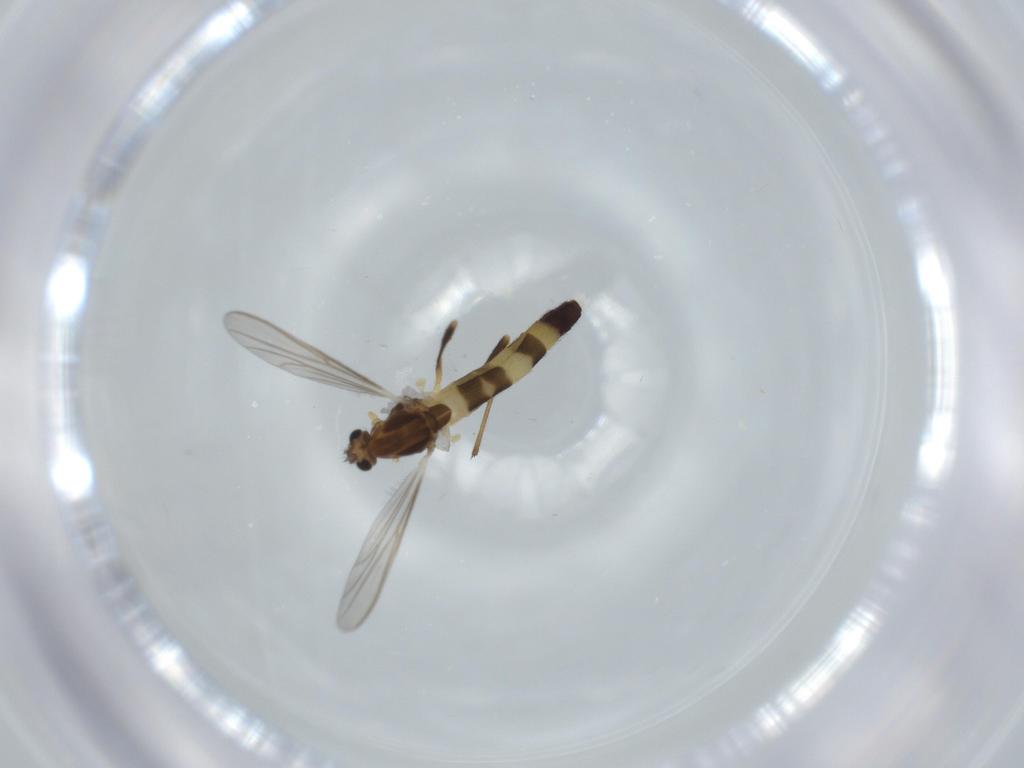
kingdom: Animalia
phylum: Arthropoda
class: Insecta
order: Diptera
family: Chironomidae
